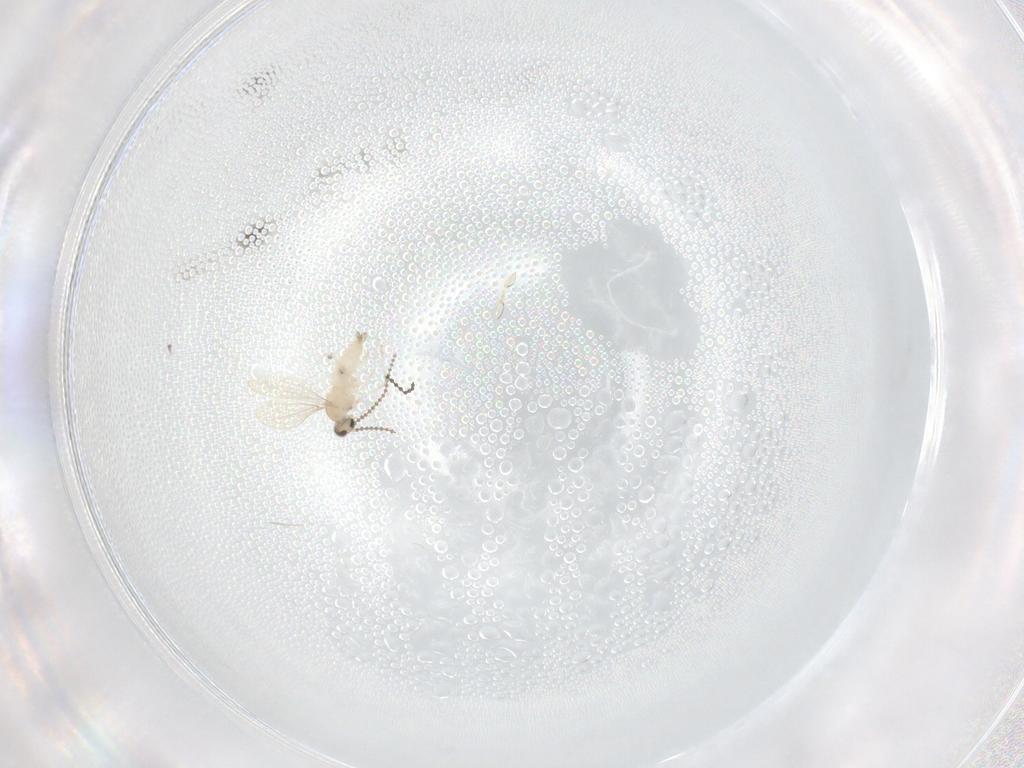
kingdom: Animalia
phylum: Arthropoda
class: Insecta
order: Diptera
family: Cecidomyiidae
